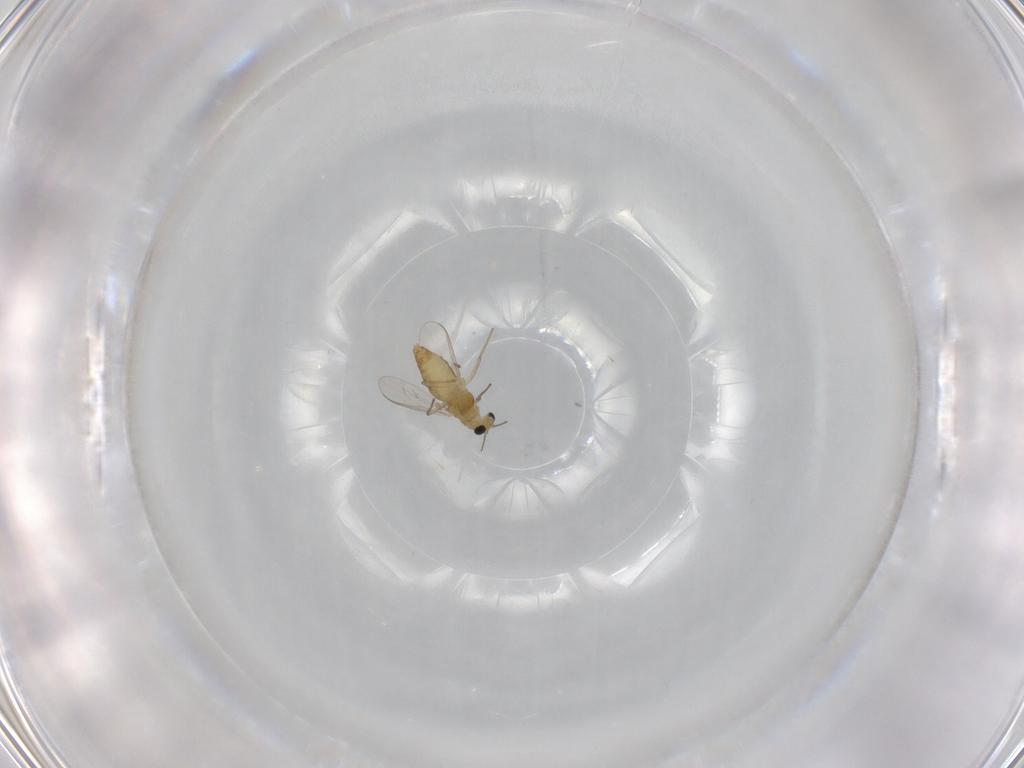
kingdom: Animalia
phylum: Arthropoda
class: Insecta
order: Diptera
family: Chironomidae
